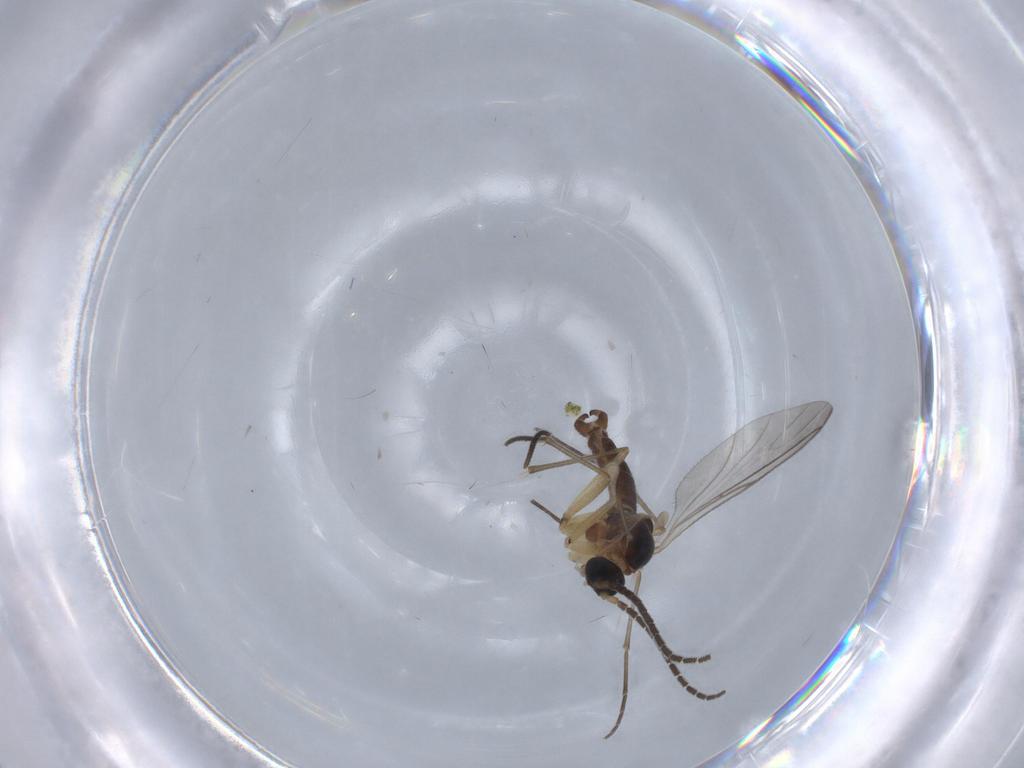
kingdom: Animalia
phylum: Arthropoda
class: Insecta
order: Diptera
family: Sciaridae
